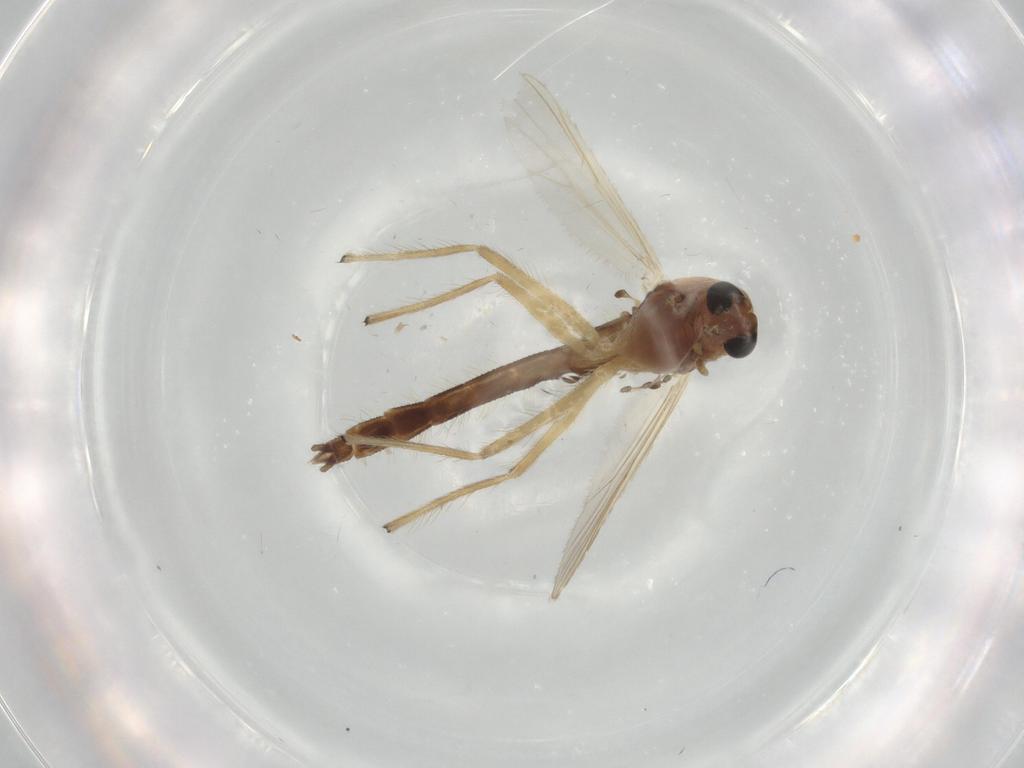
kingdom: Animalia
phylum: Arthropoda
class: Insecta
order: Diptera
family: Chironomidae
